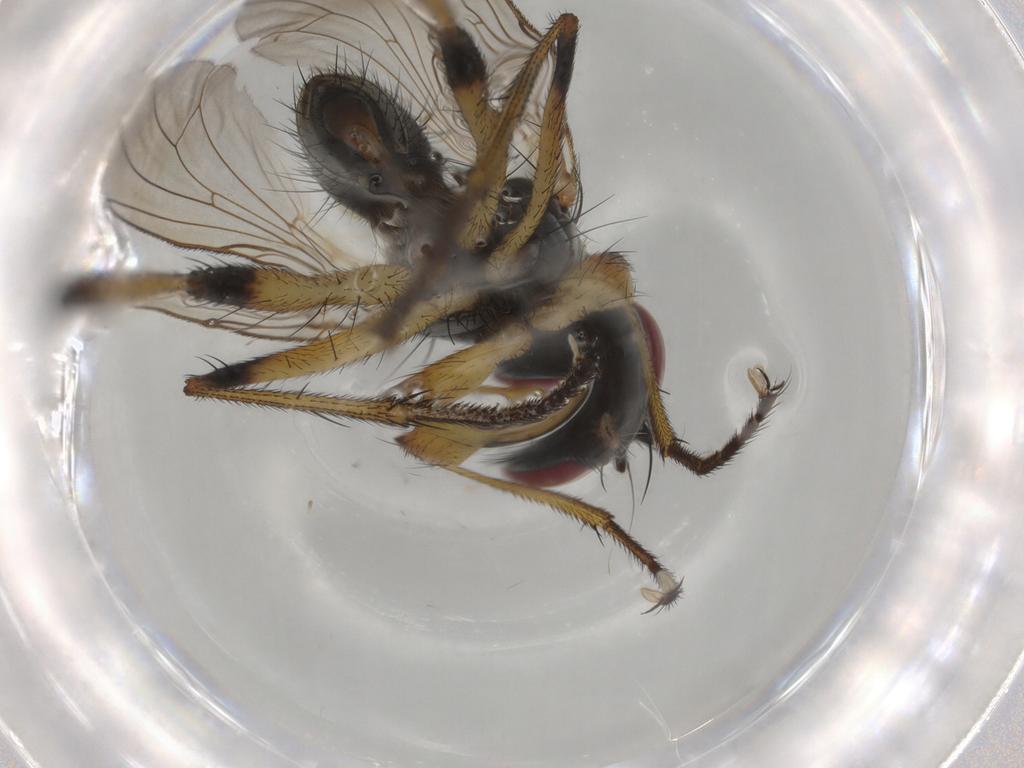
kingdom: Animalia
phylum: Arthropoda
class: Insecta
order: Diptera
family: Muscidae
